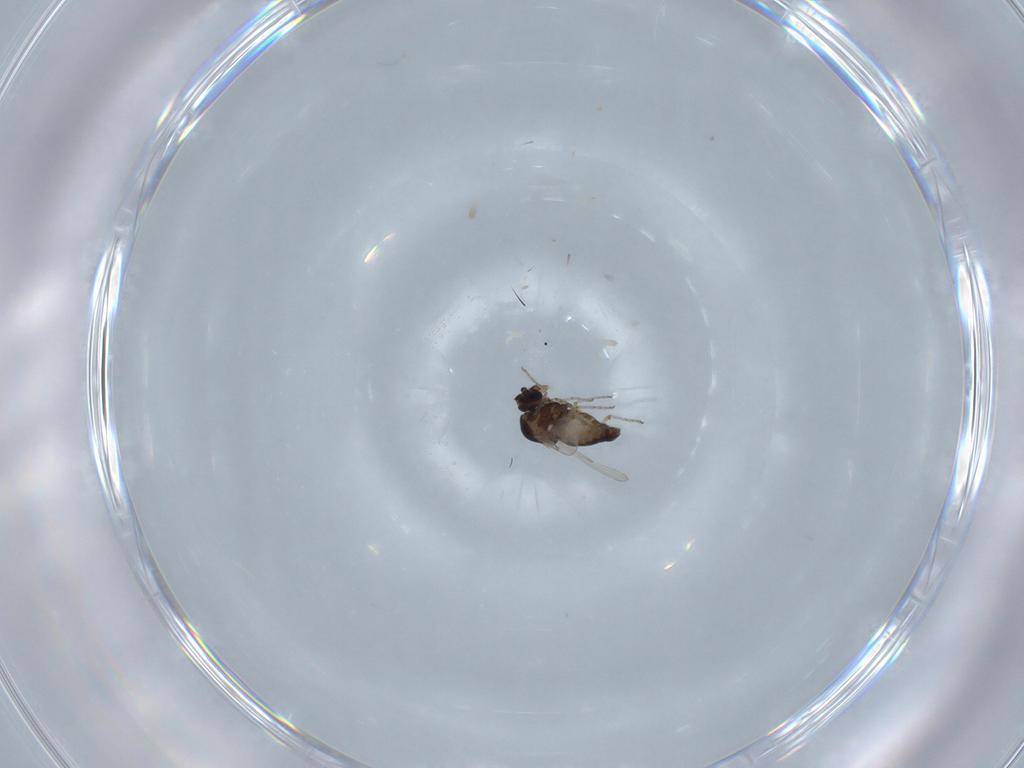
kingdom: Animalia
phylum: Arthropoda
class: Insecta
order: Diptera
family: Ceratopogonidae
